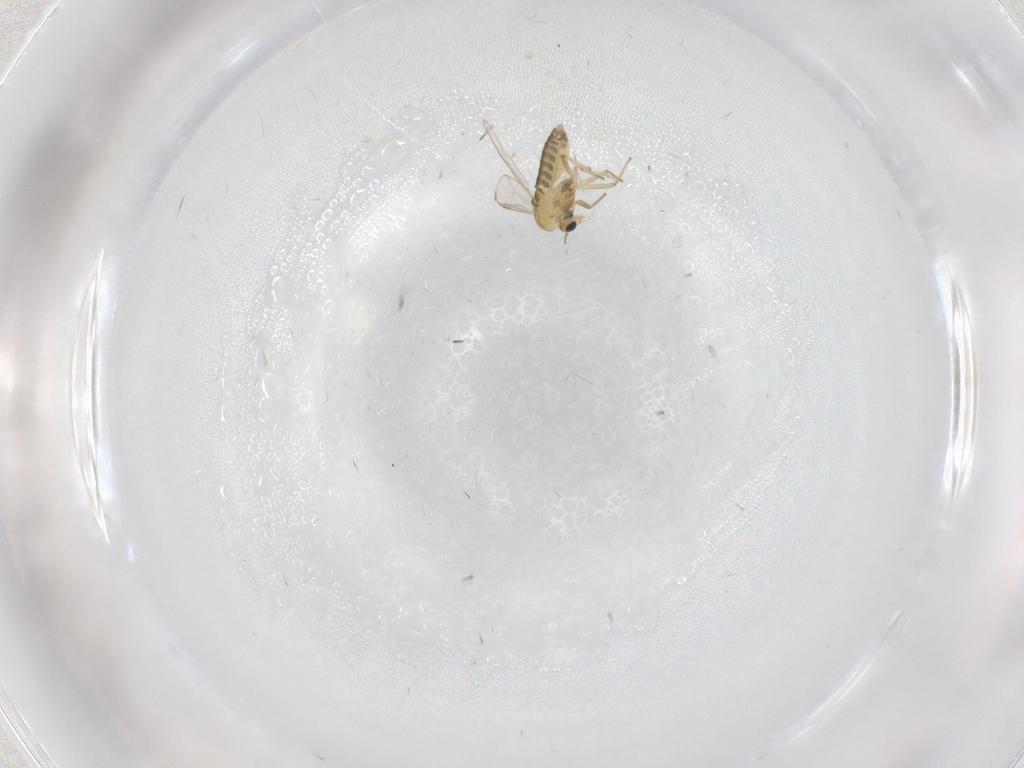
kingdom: Animalia
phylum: Arthropoda
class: Insecta
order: Diptera
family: Chironomidae
